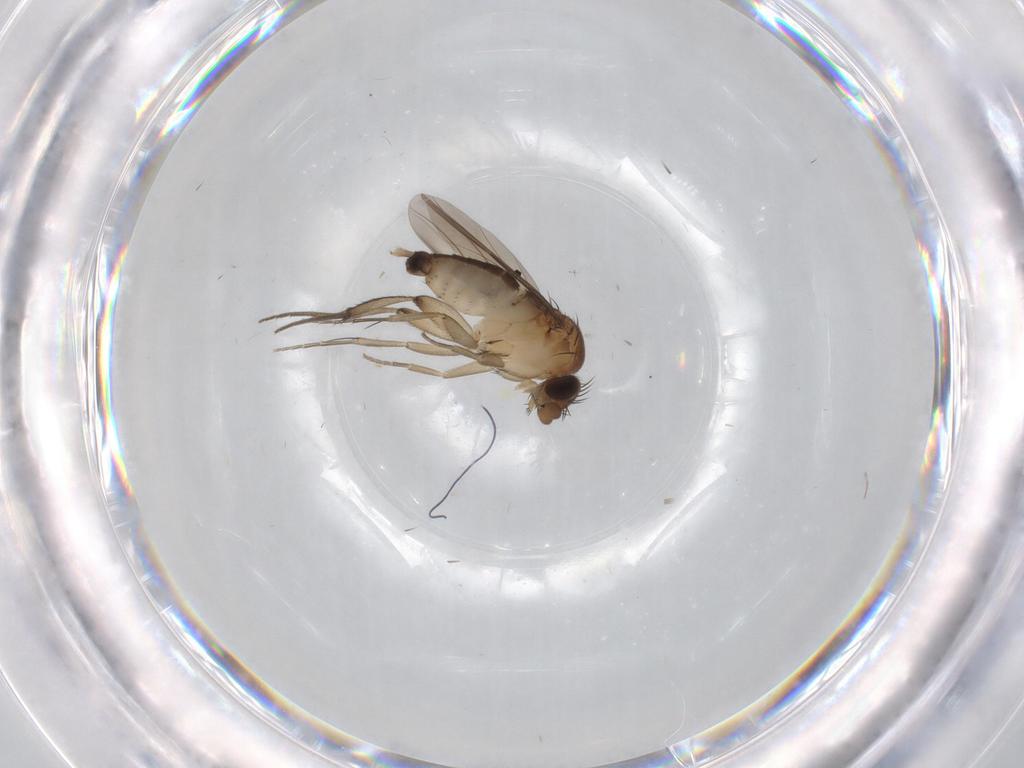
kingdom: Animalia
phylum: Arthropoda
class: Insecta
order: Diptera
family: Phoridae
